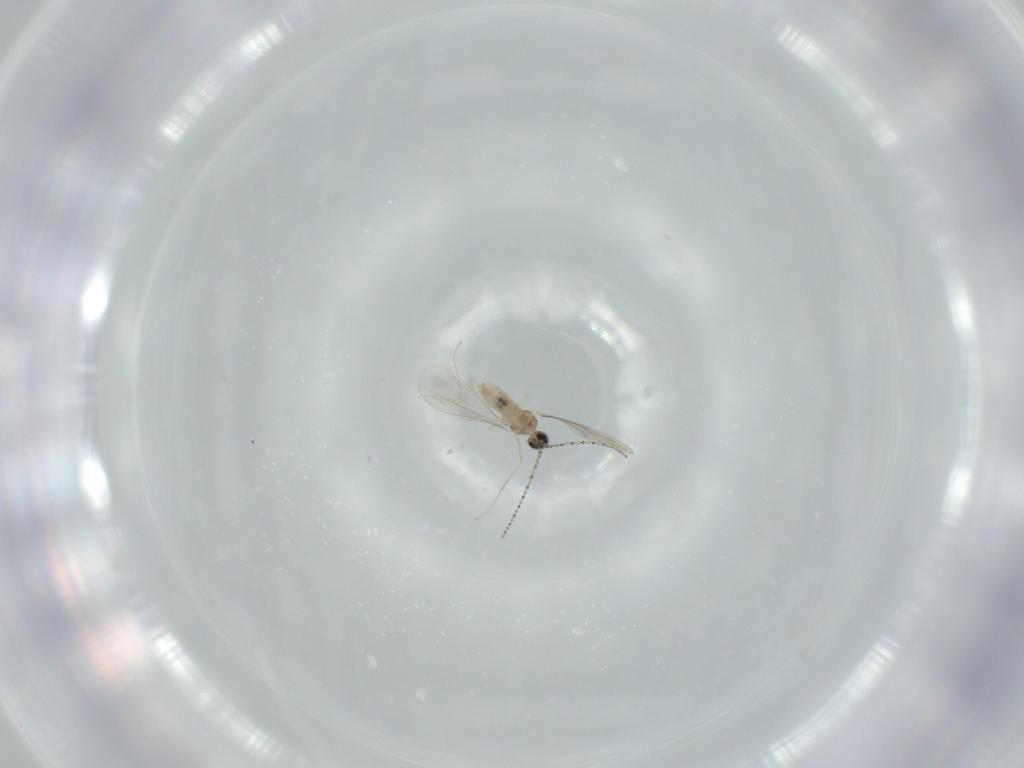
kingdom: Animalia
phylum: Arthropoda
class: Insecta
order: Diptera
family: Cecidomyiidae
